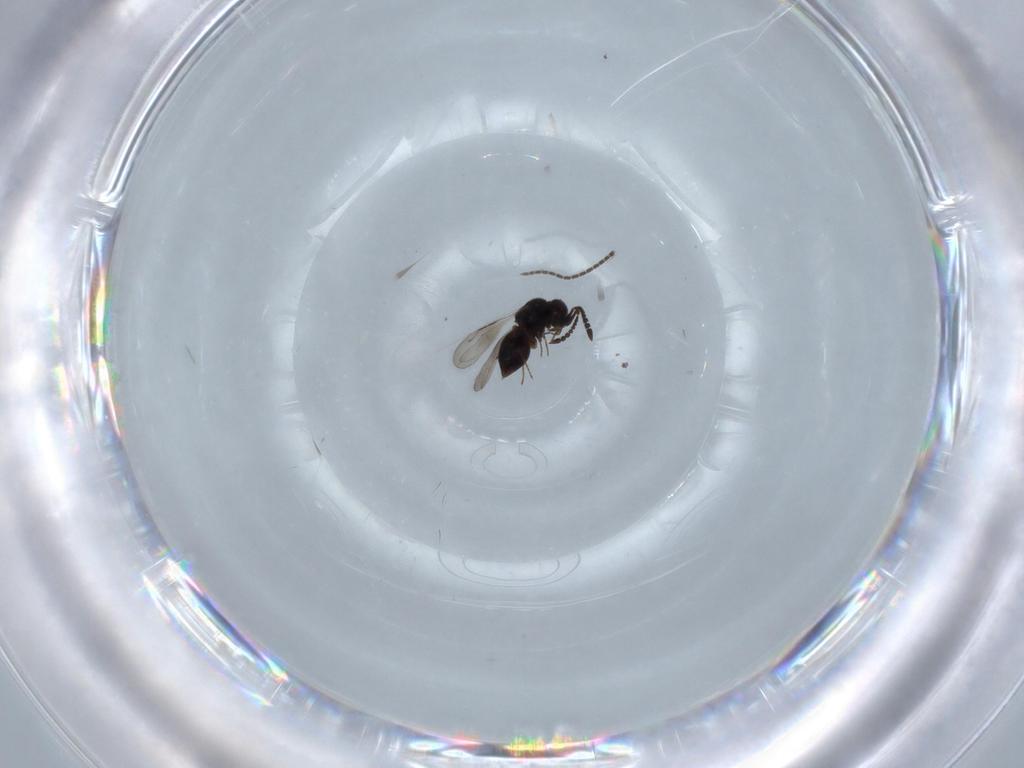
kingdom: Animalia
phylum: Arthropoda
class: Insecta
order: Hymenoptera
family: Ceraphronidae
